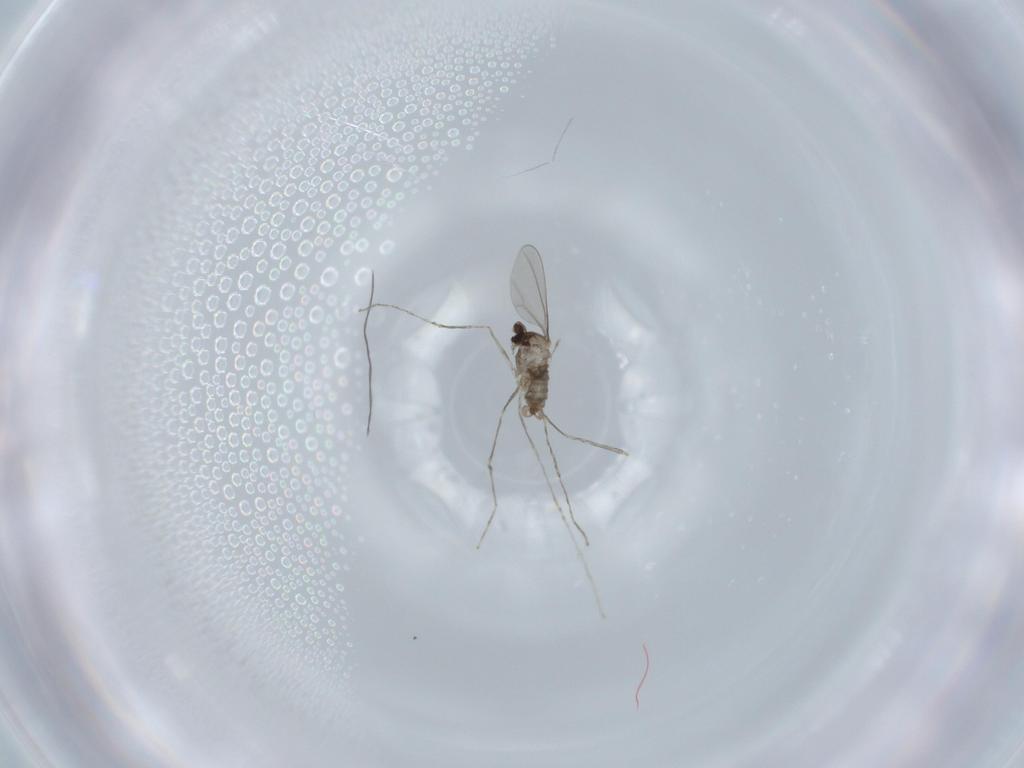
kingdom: Animalia
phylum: Arthropoda
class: Insecta
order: Diptera
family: Cecidomyiidae
